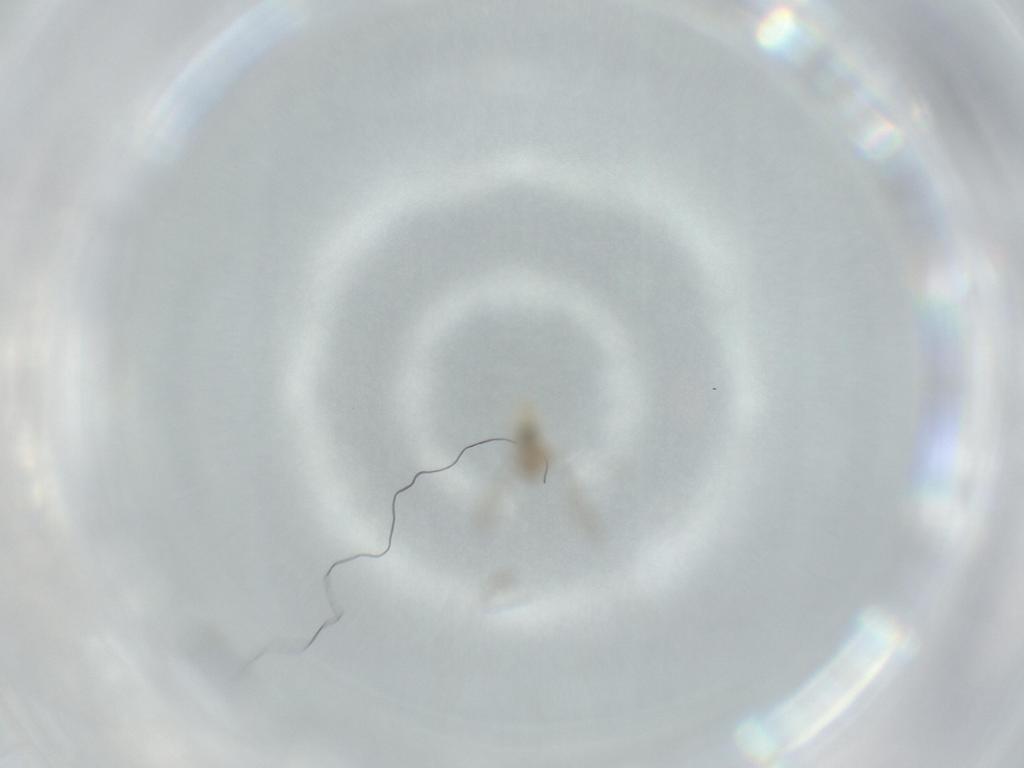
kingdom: Animalia
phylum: Arthropoda
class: Insecta
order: Diptera
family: Cecidomyiidae
